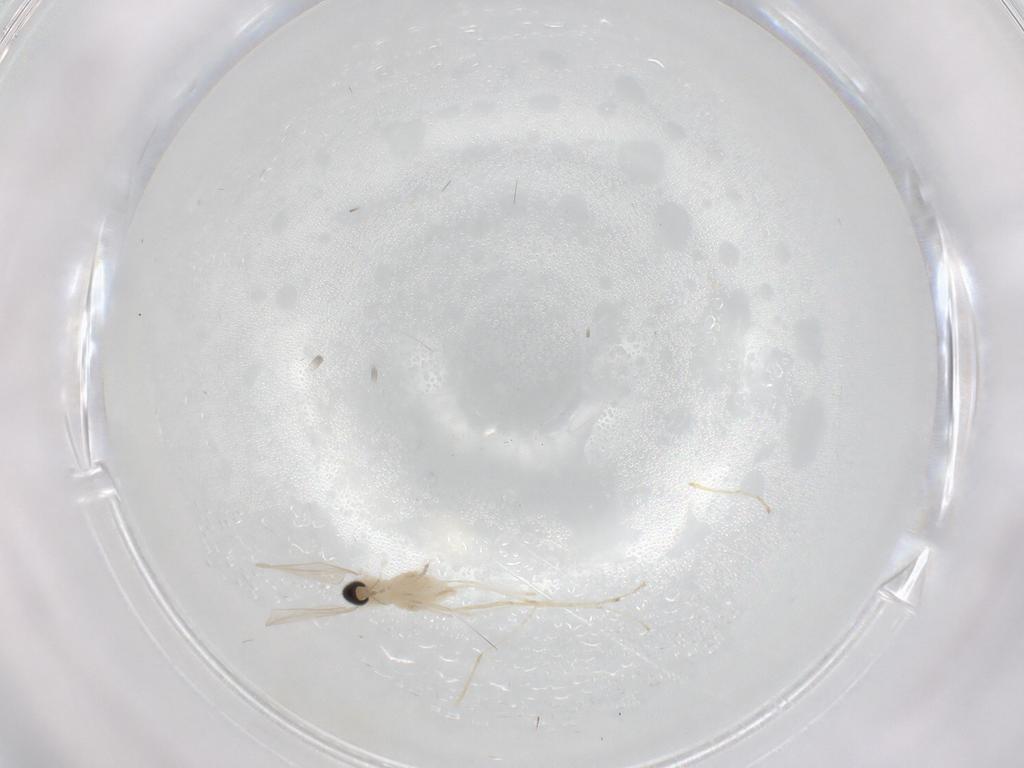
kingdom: Animalia
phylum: Arthropoda
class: Insecta
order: Diptera
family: Sciaridae
